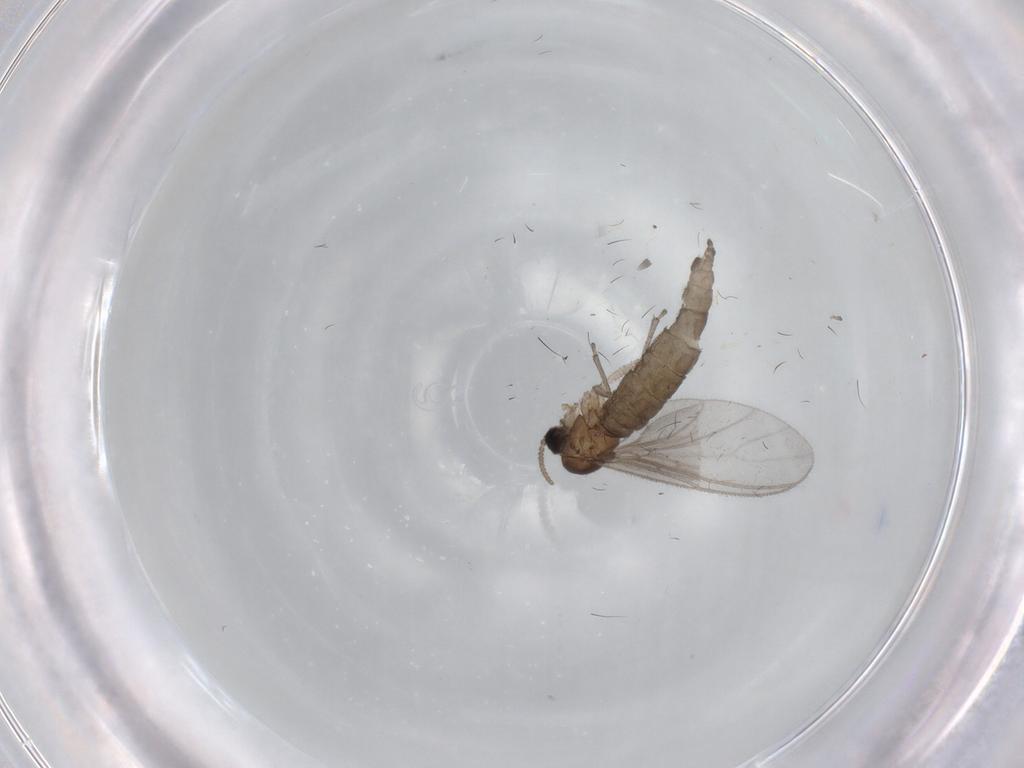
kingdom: Animalia
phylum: Arthropoda
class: Insecta
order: Diptera
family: Sciaridae
